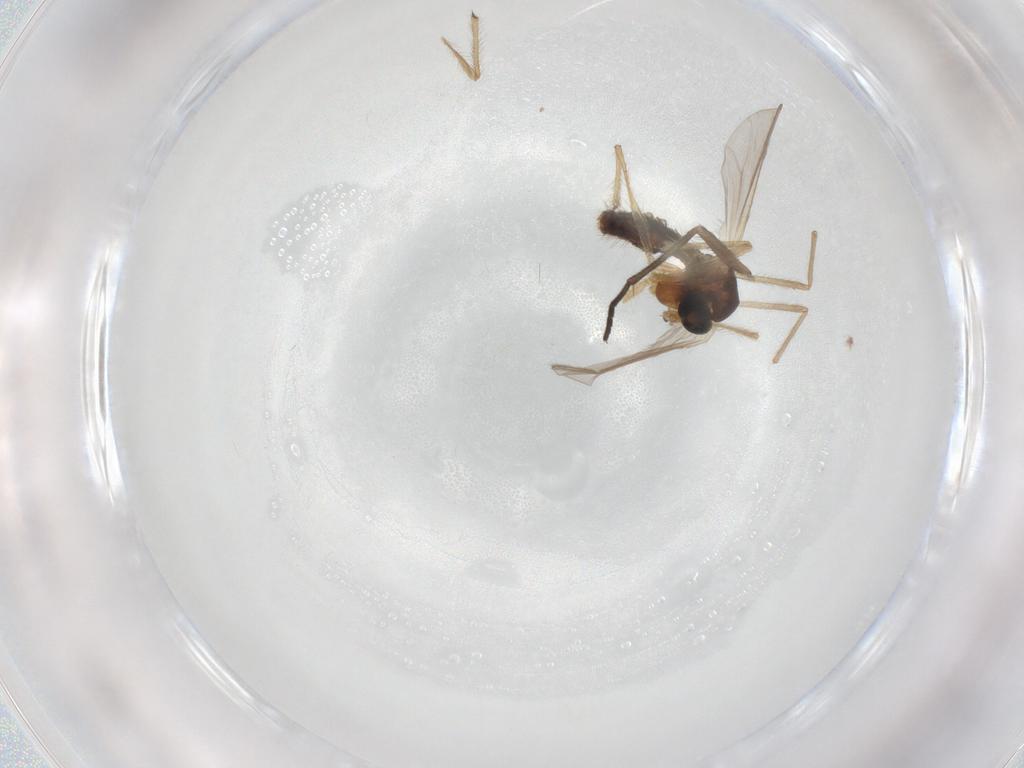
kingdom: Animalia
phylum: Arthropoda
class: Insecta
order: Diptera
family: Chironomidae
